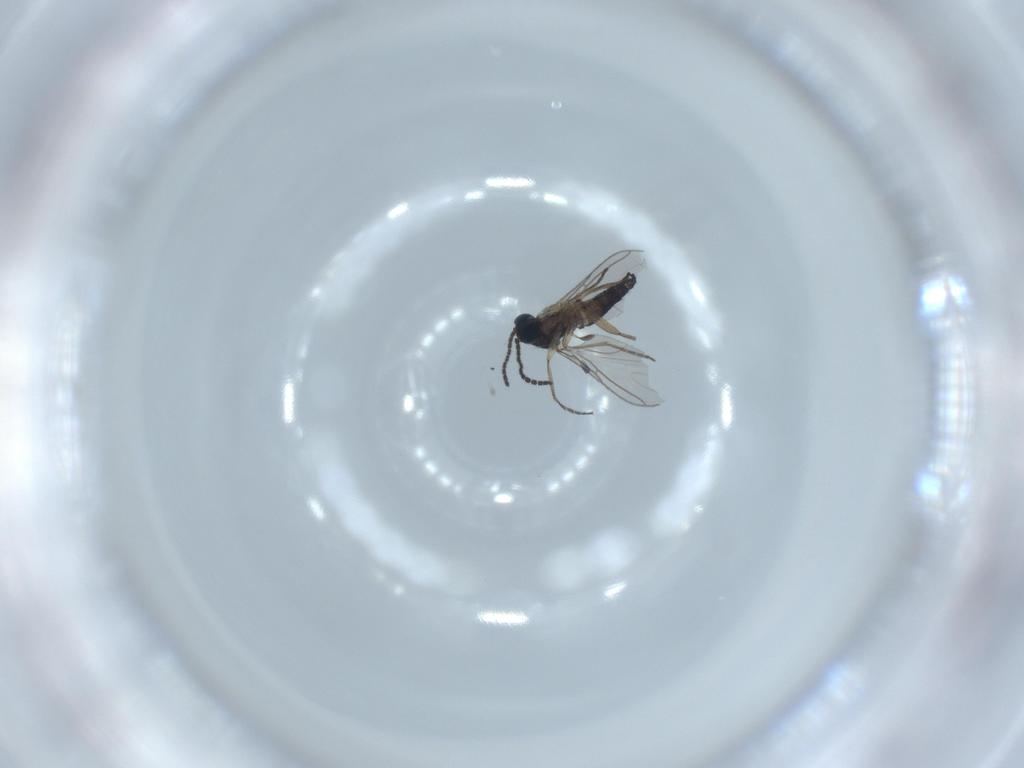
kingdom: Animalia
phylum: Arthropoda
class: Insecta
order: Diptera
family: Sciaridae
